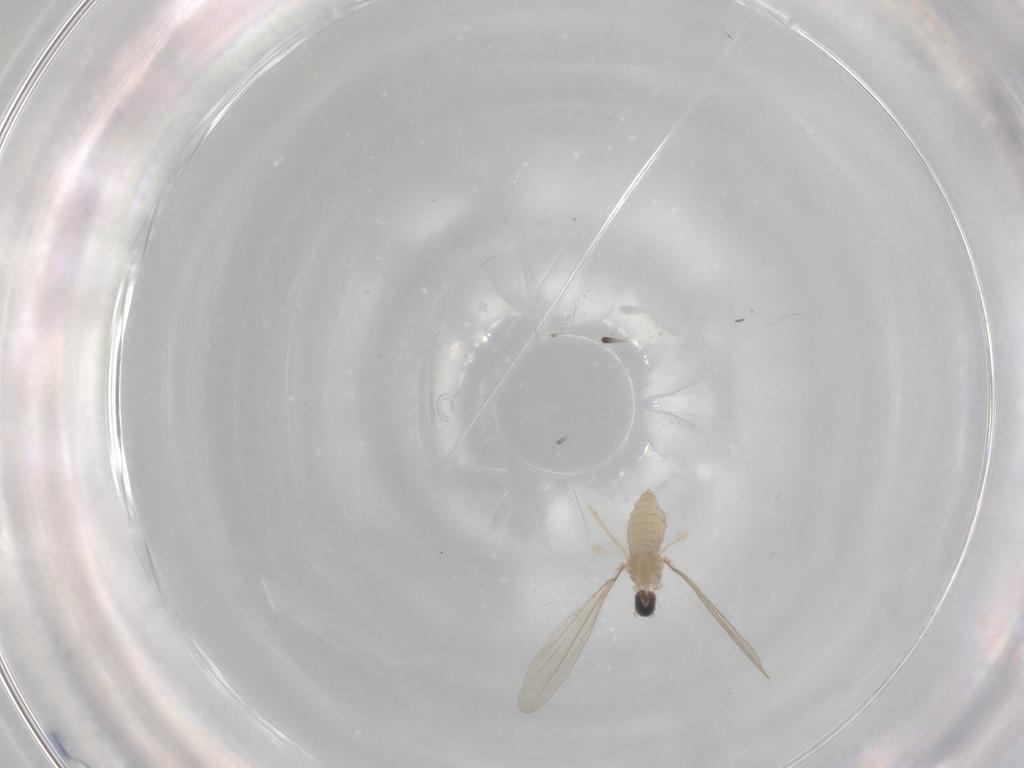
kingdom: Animalia
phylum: Arthropoda
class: Insecta
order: Diptera
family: Cecidomyiidae
